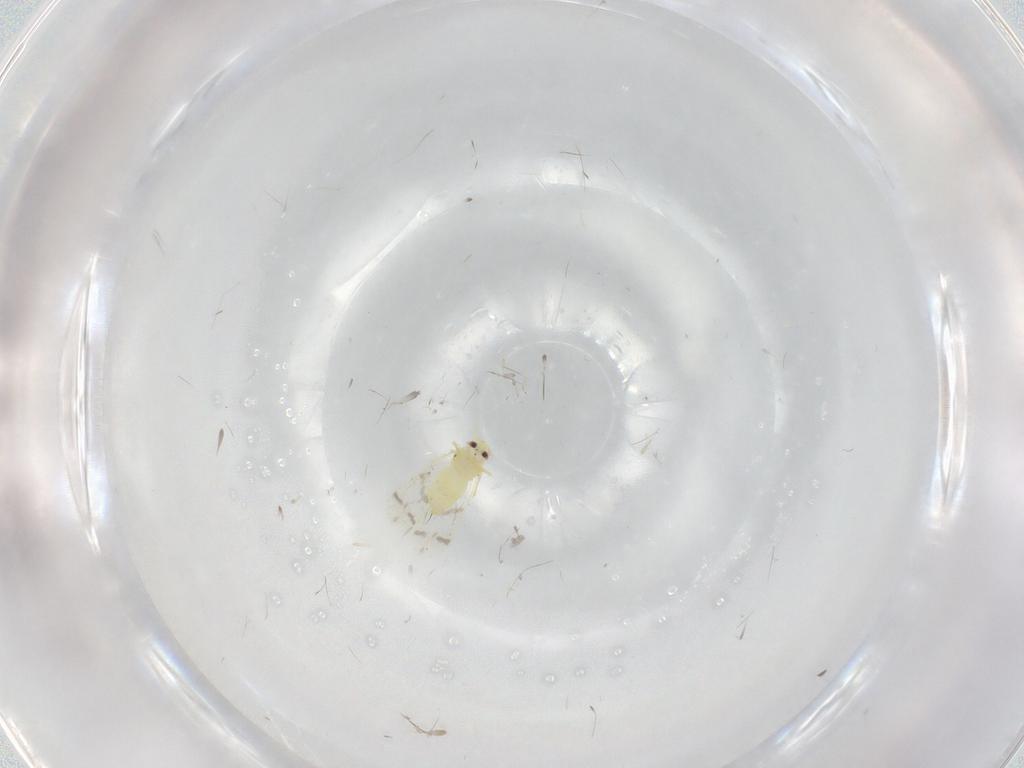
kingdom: Animalia
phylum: Arthropoda
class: Insecta
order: Hemiptera
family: Aleyrodidae
